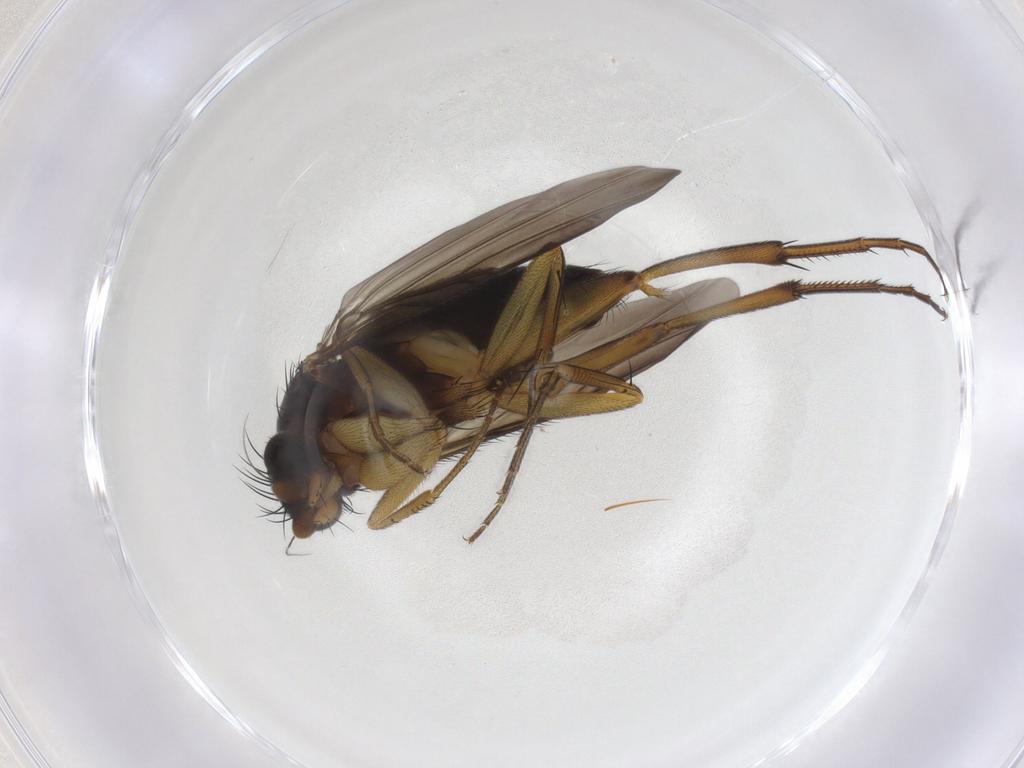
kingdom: Animalia
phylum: Arthropoda
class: Insecta
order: Diptera
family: Phoridae
